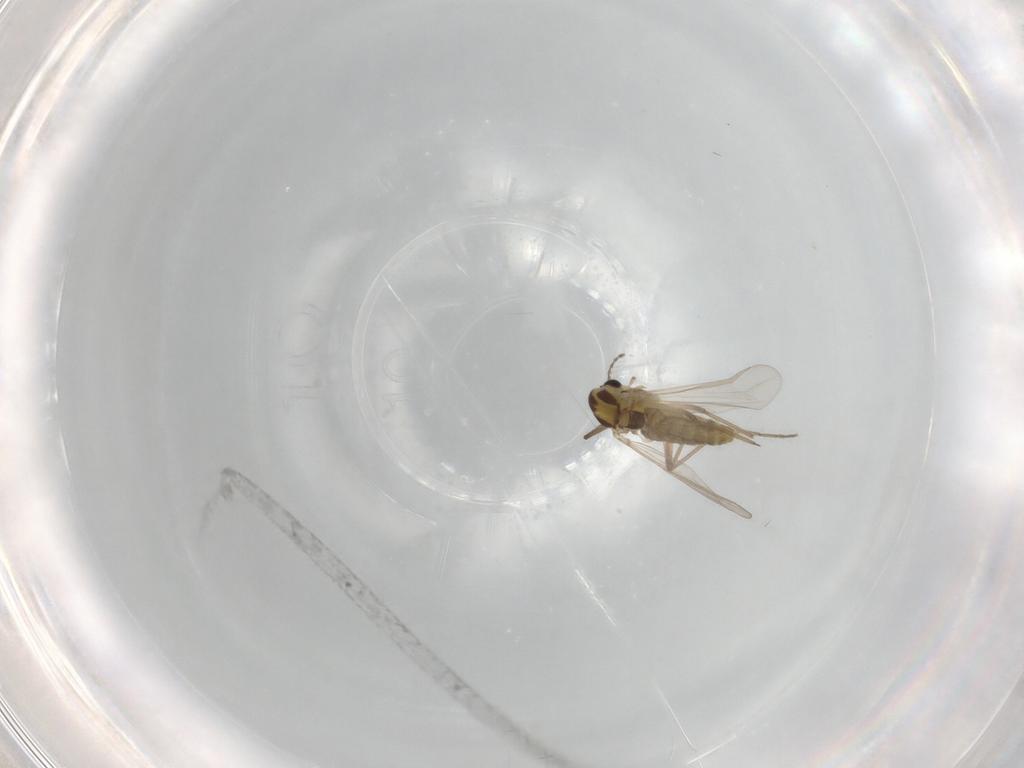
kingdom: Animalia
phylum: Arthropoda
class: Insecta
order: Diptera
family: Chironomidae
